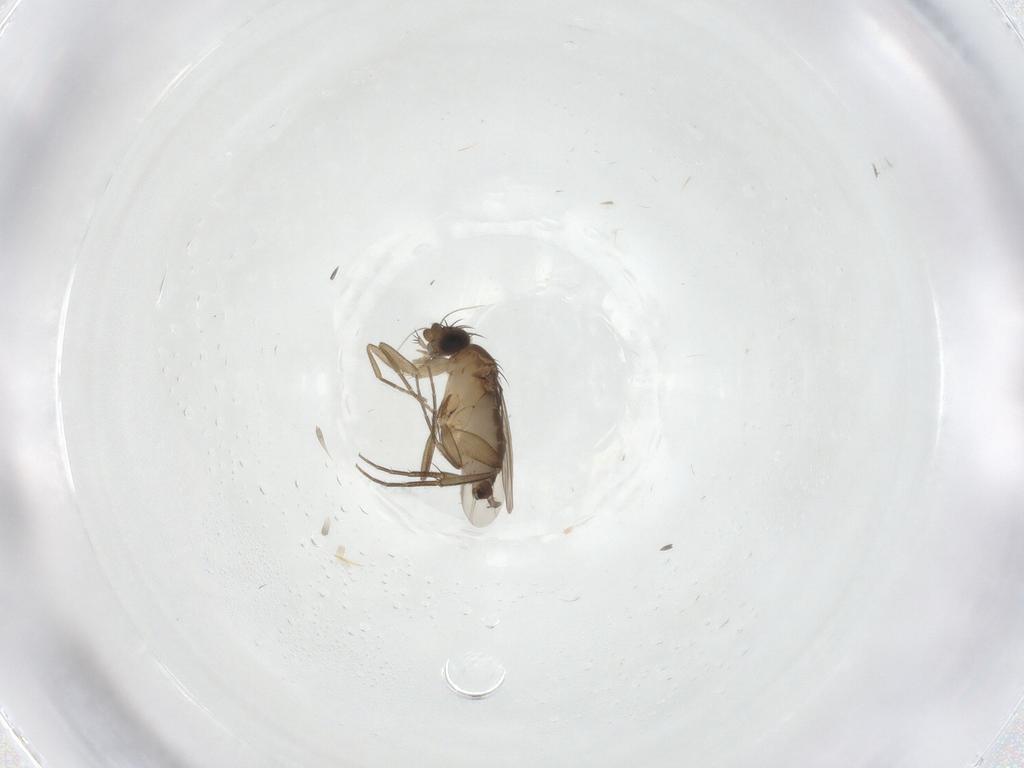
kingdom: Animalia
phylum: Arthropoda
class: Insecta
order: Diptera
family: Phoridae
